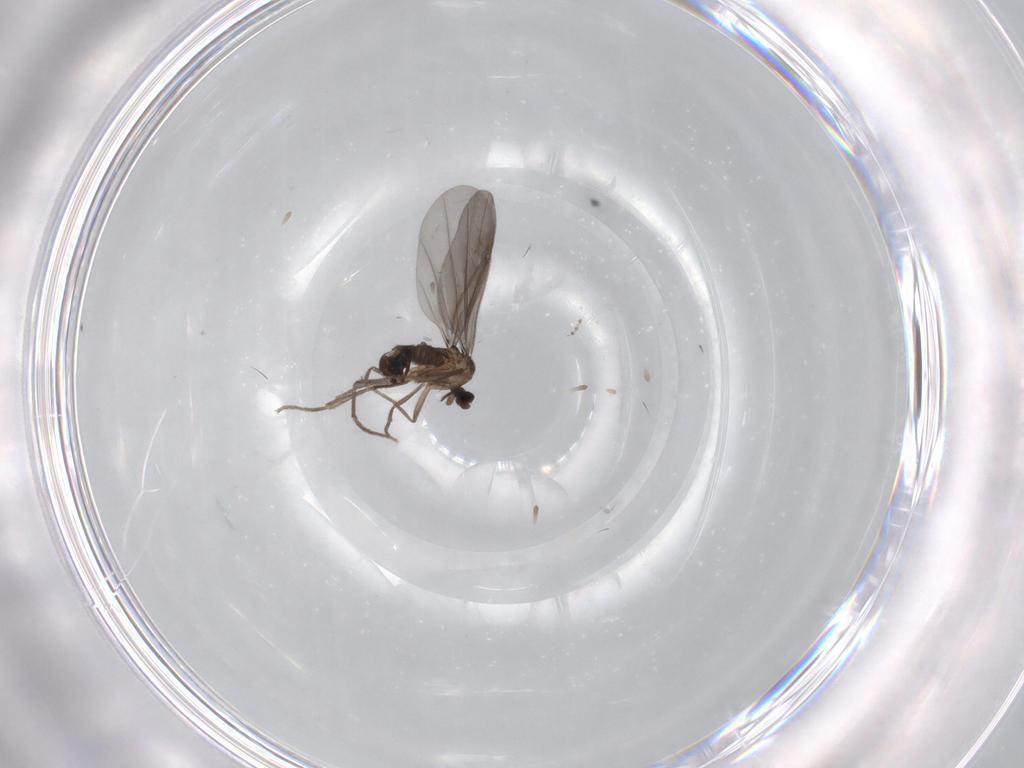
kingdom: Animalia
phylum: Arthropoda
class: Insecta
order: Diptera
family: Phoridae
